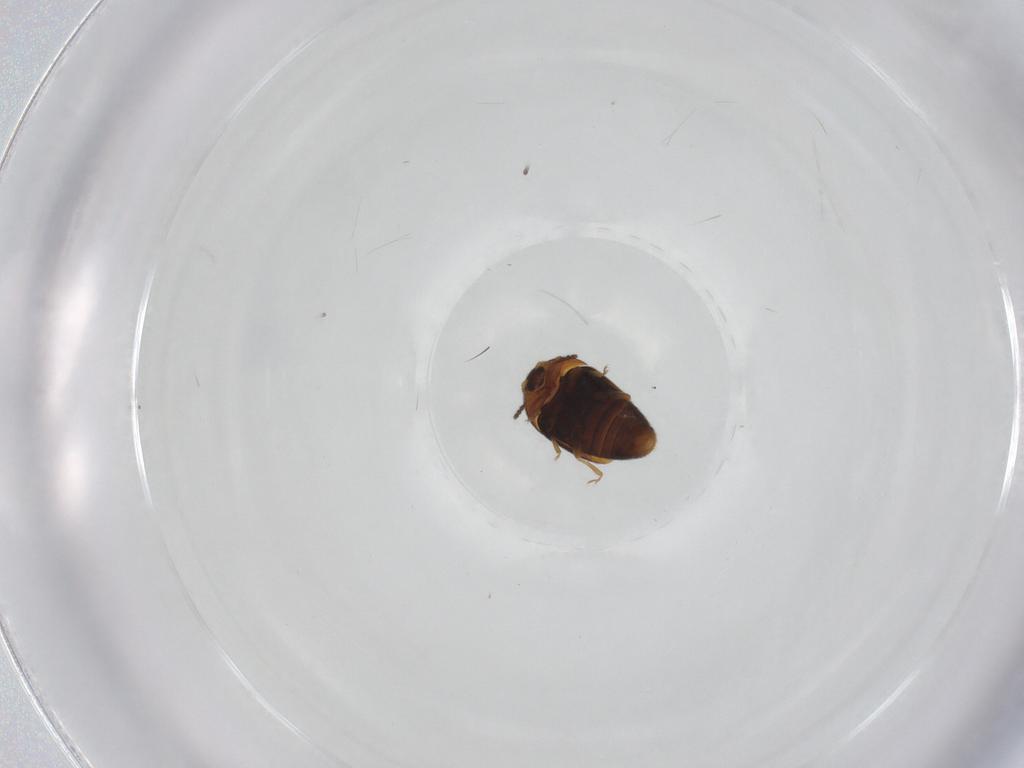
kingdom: Animalia
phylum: Arthropoda
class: Insecta
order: Coleoptera
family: Corylophidae
